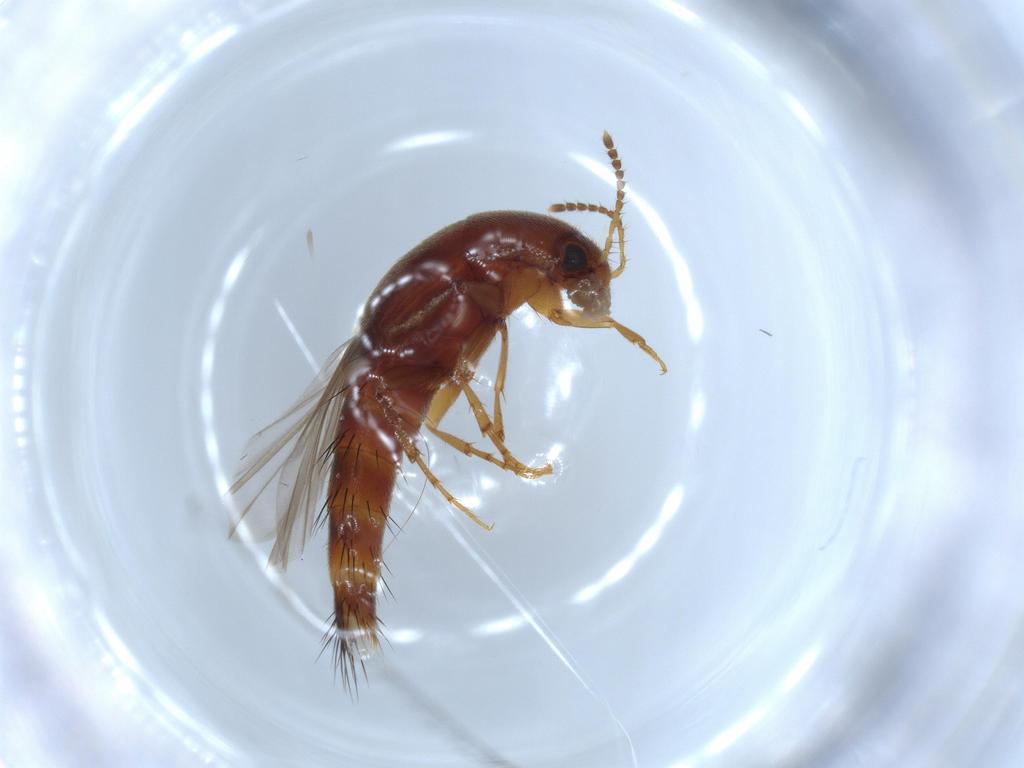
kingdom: Animalia
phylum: Arthropoda
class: Insecta
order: Coleoptera
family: Staphylinidae
